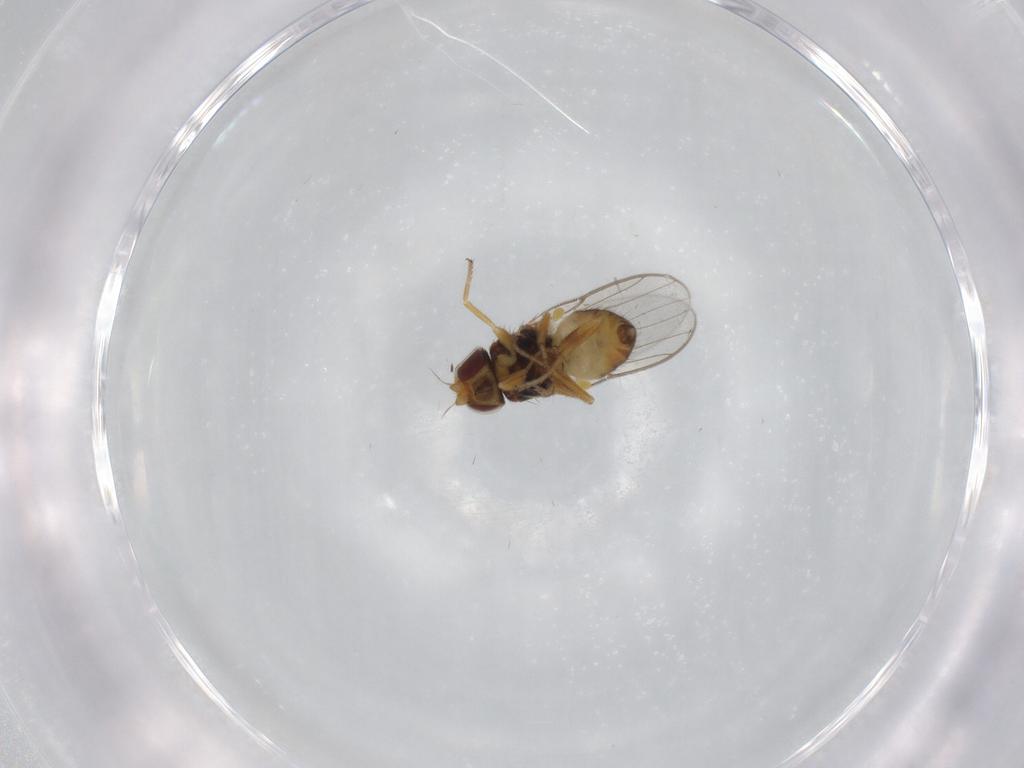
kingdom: Animalia
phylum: Arthropoda
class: Insecta
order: Diptera
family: Chloropidae
